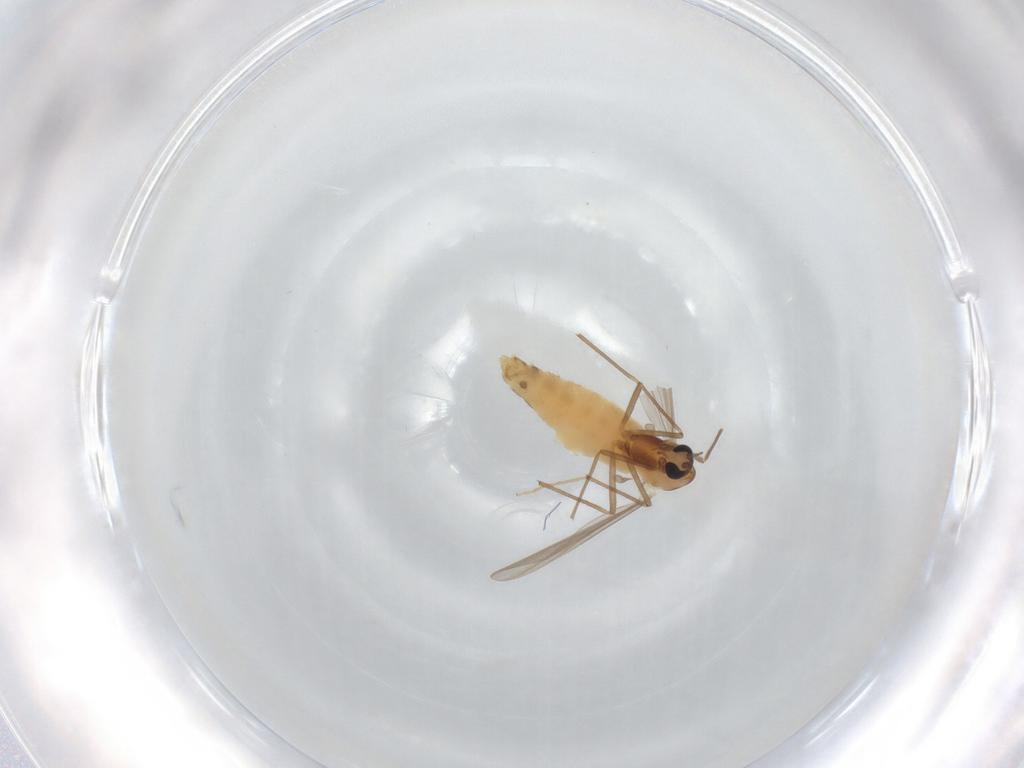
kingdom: Animalia
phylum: Arthropoda
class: Insecta
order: Diptera
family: Chironomidae
